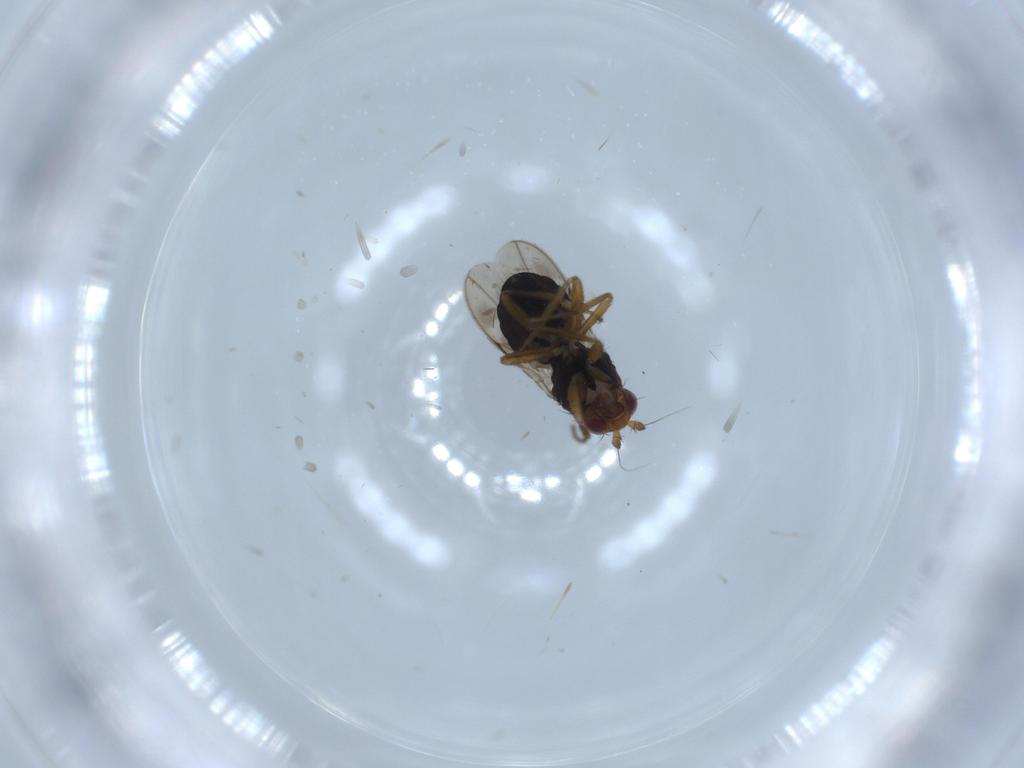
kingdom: Animalia
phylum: Arthropoda
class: Insecta
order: Diptera
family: Sphaeroceridae
